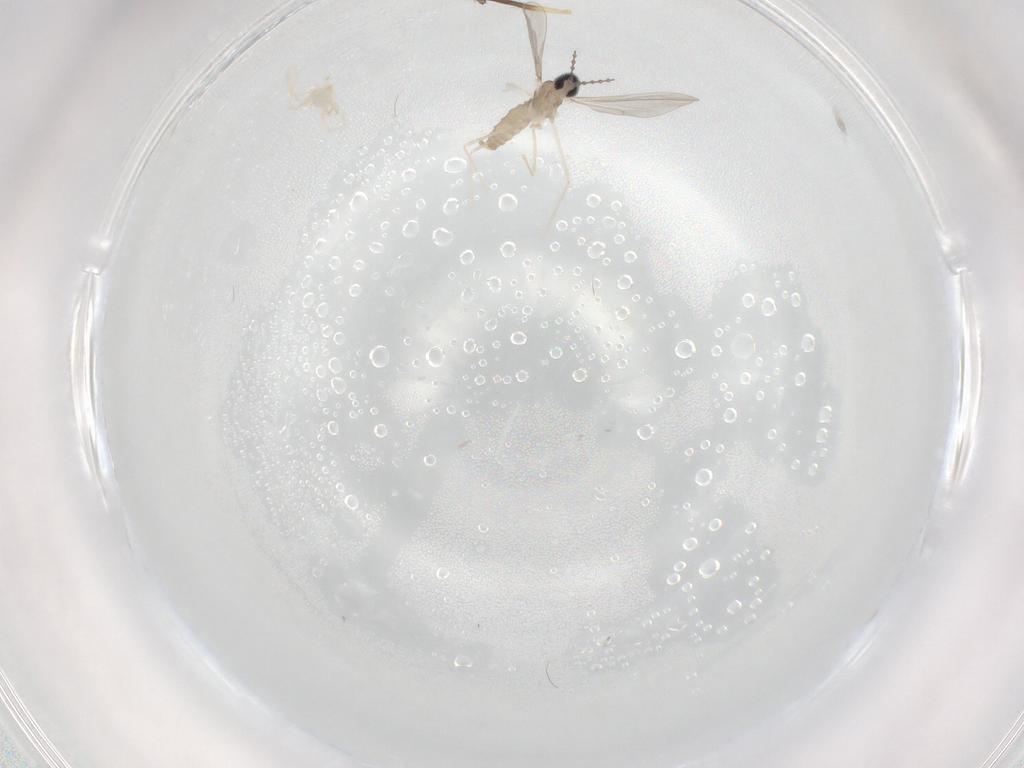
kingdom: Animalia
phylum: Arthropoda
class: Insecta
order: Diptera
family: Cecidomyiidae
